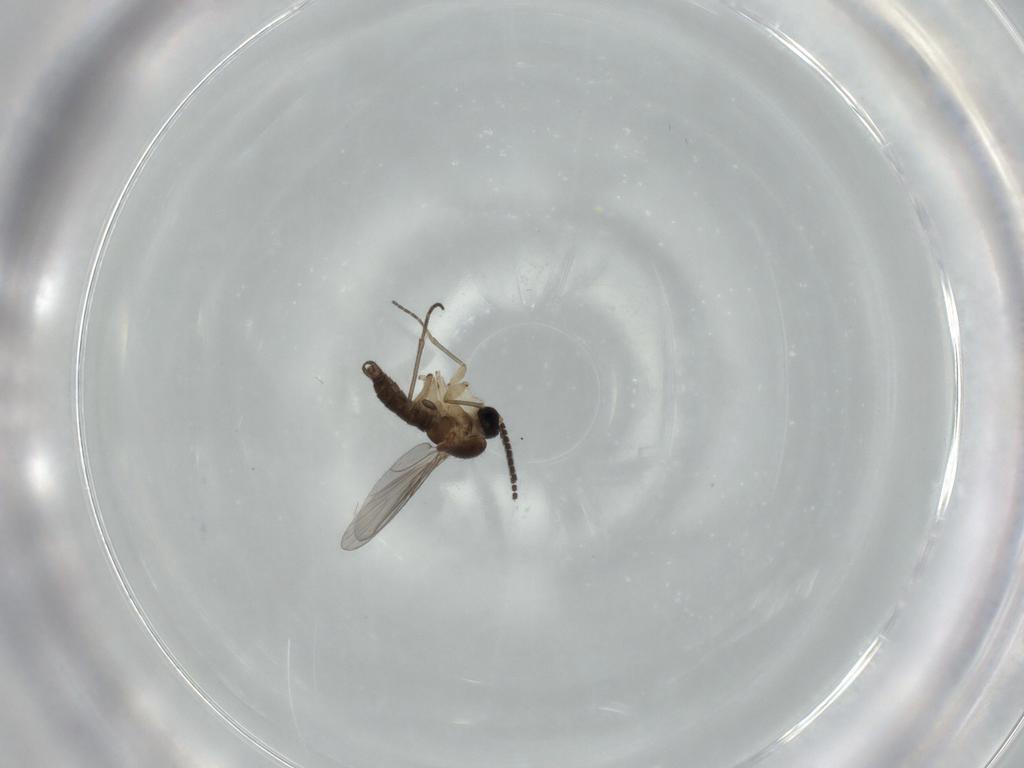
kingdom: Animalia
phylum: Arthropoda
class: Insecta
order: Diptera
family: Sciaridae
